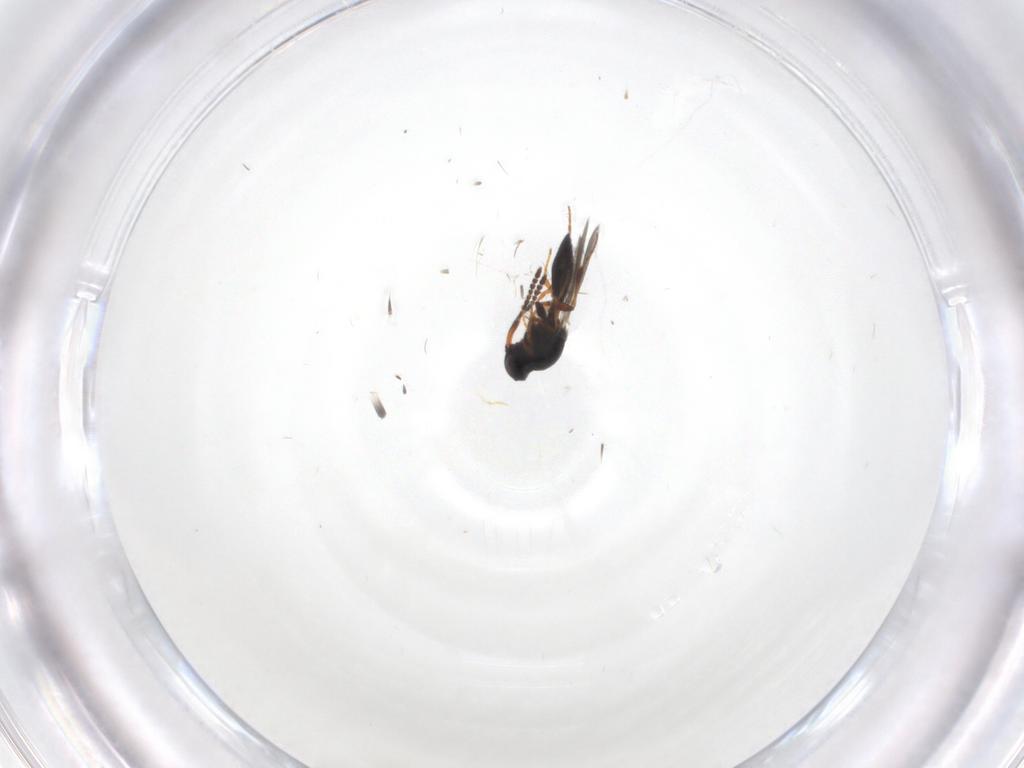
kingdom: Animalia
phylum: Arthropoda
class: Insecta
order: Hymenoptera
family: Platygastridae
